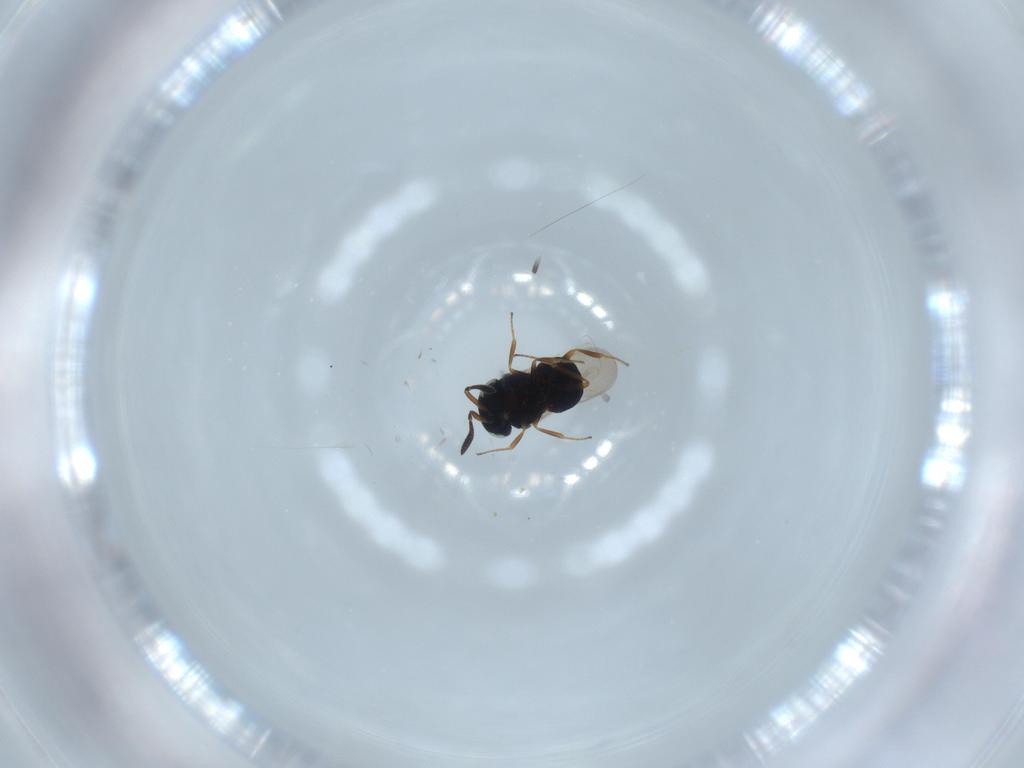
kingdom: Animalia
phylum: Arthropoda
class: Insecta
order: Hymenoptera
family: Scelionidae
